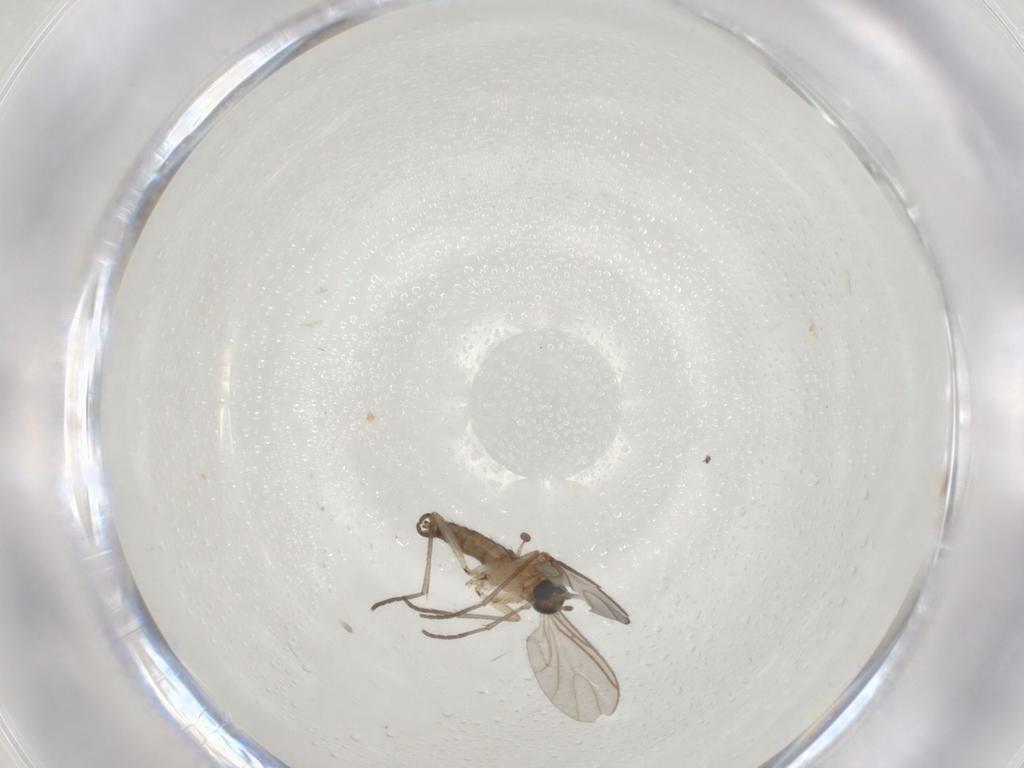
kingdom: Animalia
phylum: Arthropoda
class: Insecta
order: Diptera
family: Sciaridae
